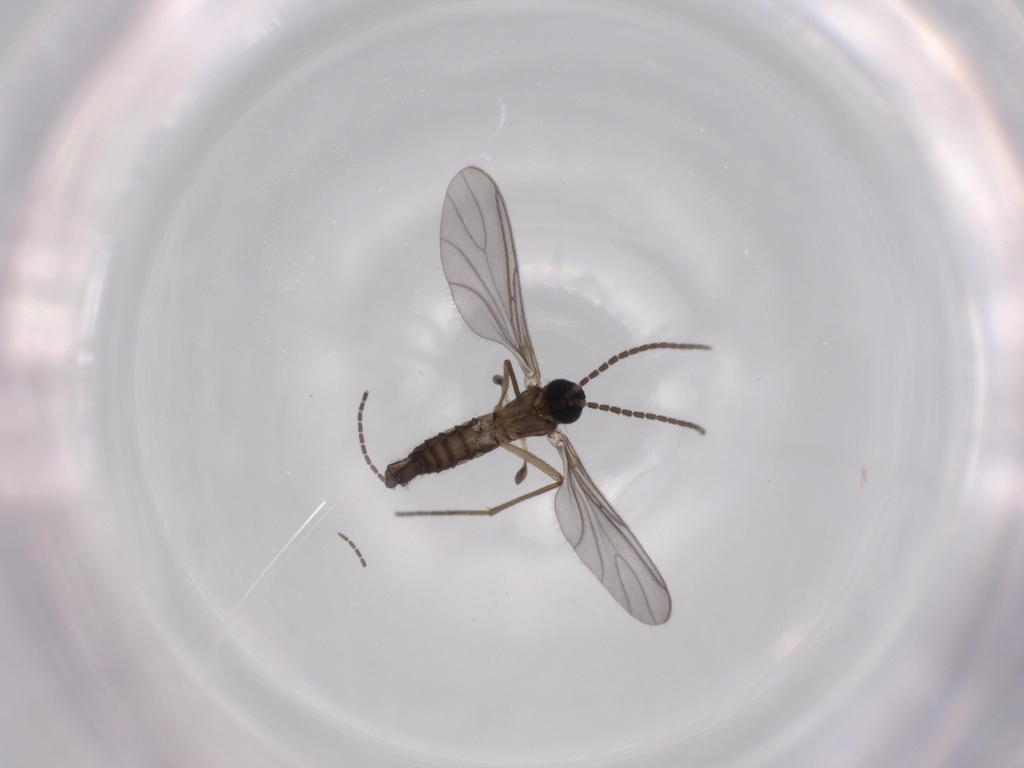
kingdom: Animalia
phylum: Arthropoda
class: Insecta
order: Diptera
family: Sciaridae
